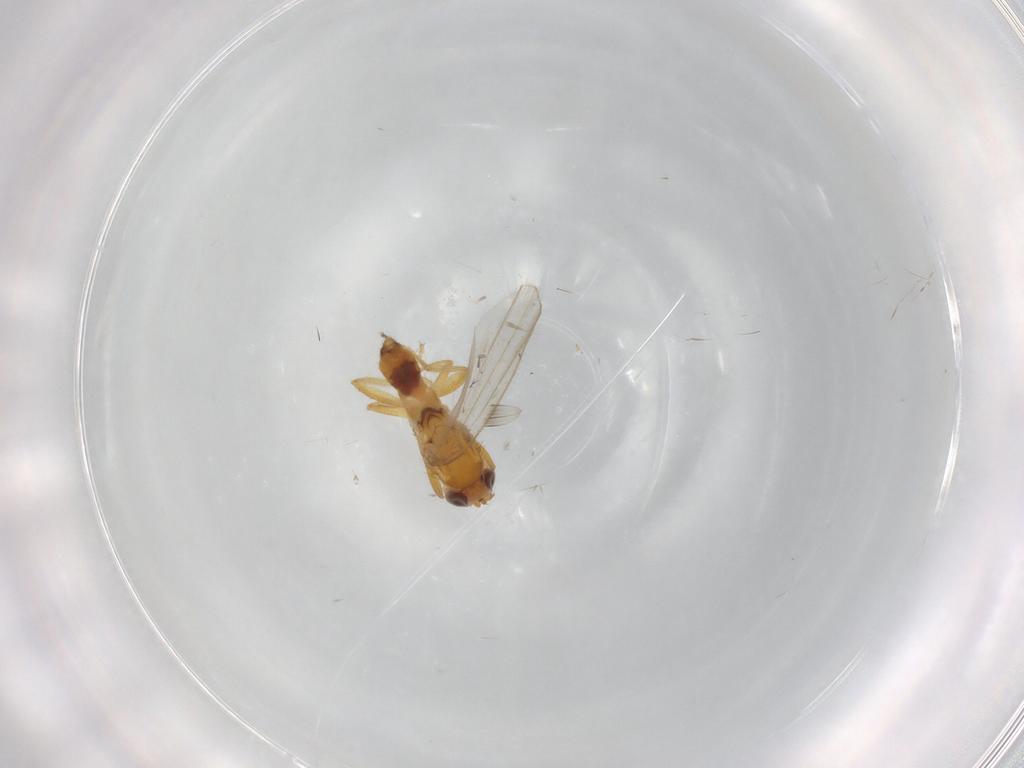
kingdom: Animalia
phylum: Arthropoda
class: Insecta
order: Diptera
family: Periscelididae
